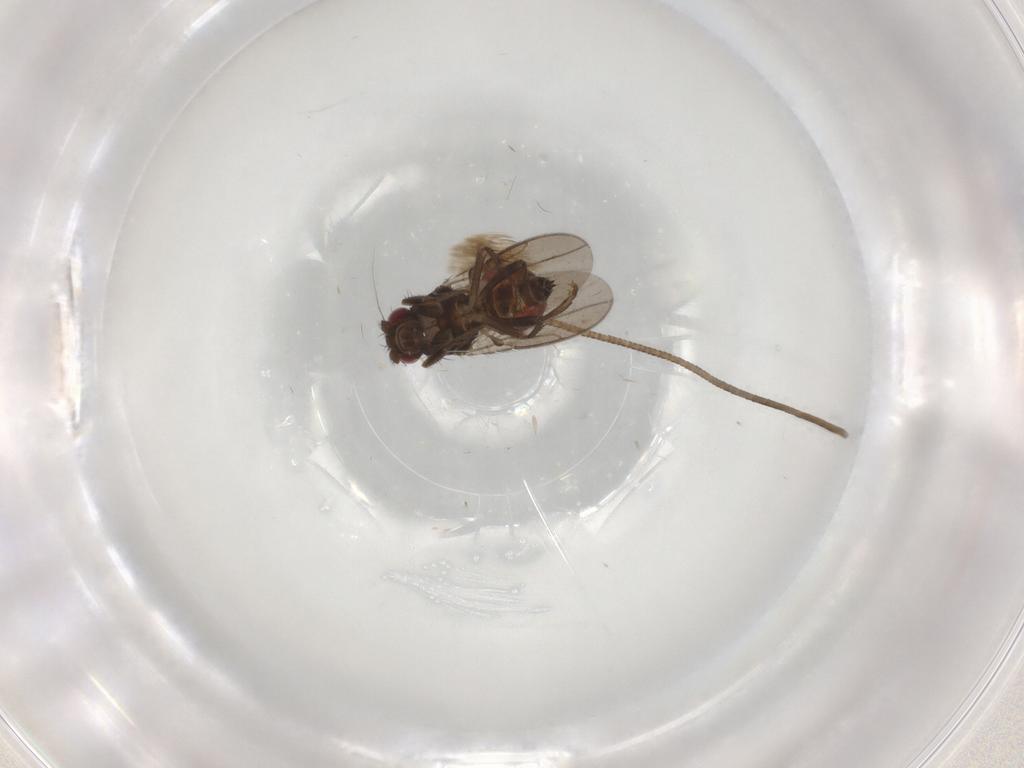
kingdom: Animalia
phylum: Arthropoda
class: Insecta
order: Diptera
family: Sphaeroceridae
